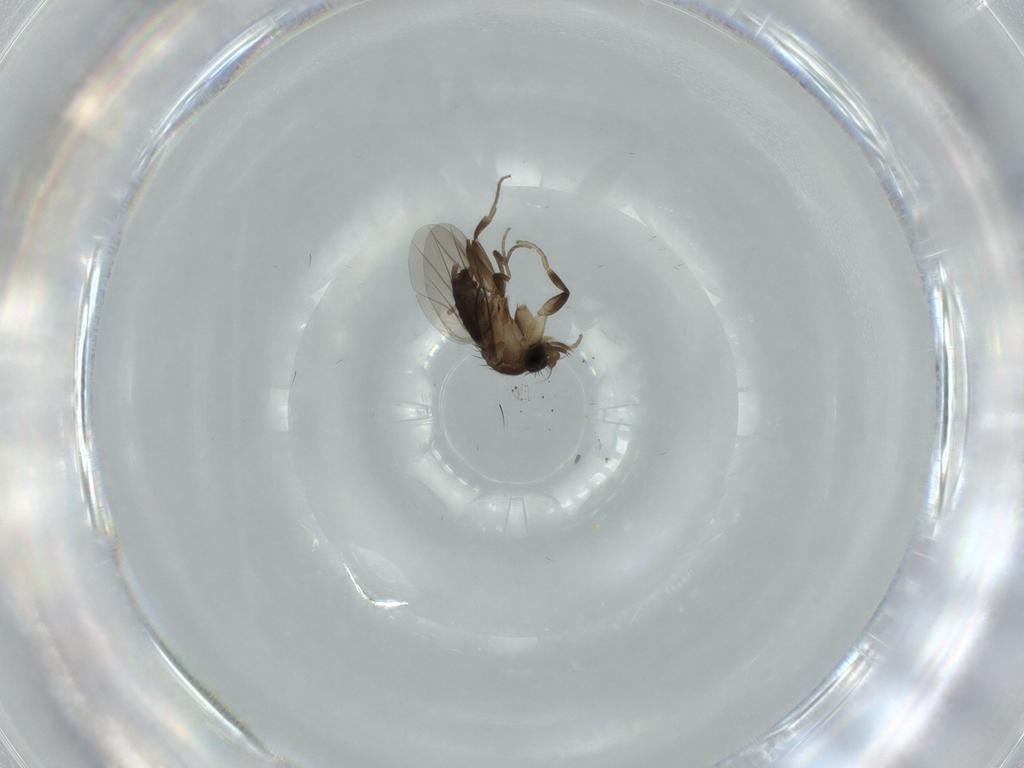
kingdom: Animalia
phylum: Arthropoda
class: Insecta
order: Diptera
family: Phoridae
